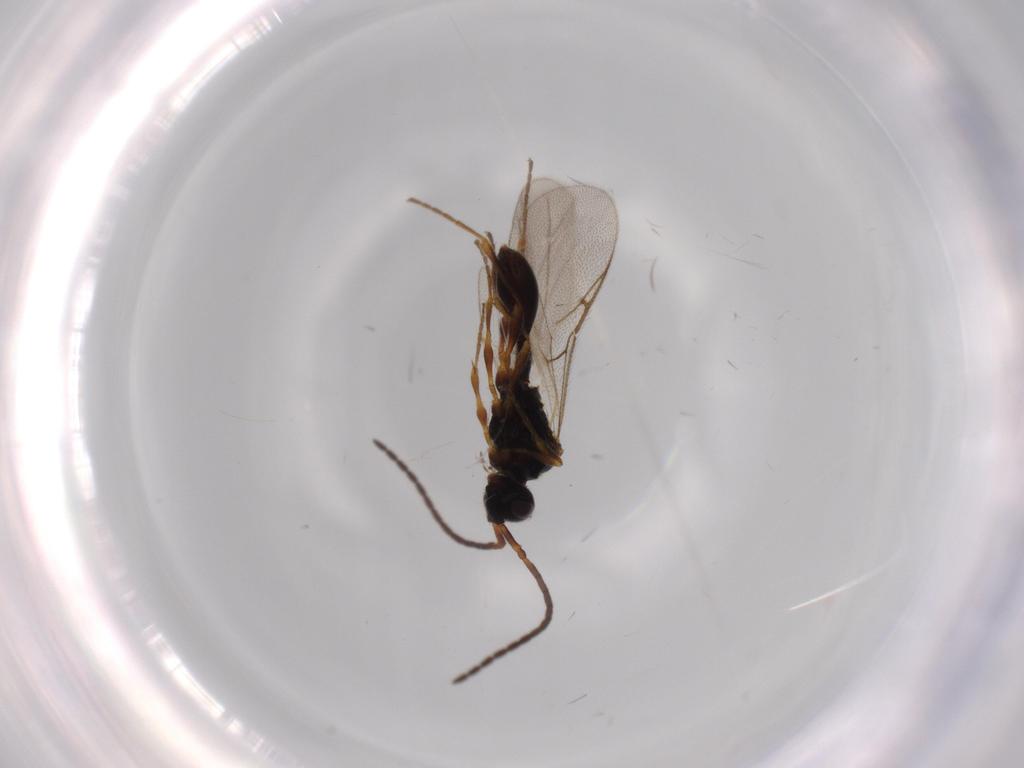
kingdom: Animalia
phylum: Arthropoda
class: Insecta
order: Hymenoptera
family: Diapriidae
